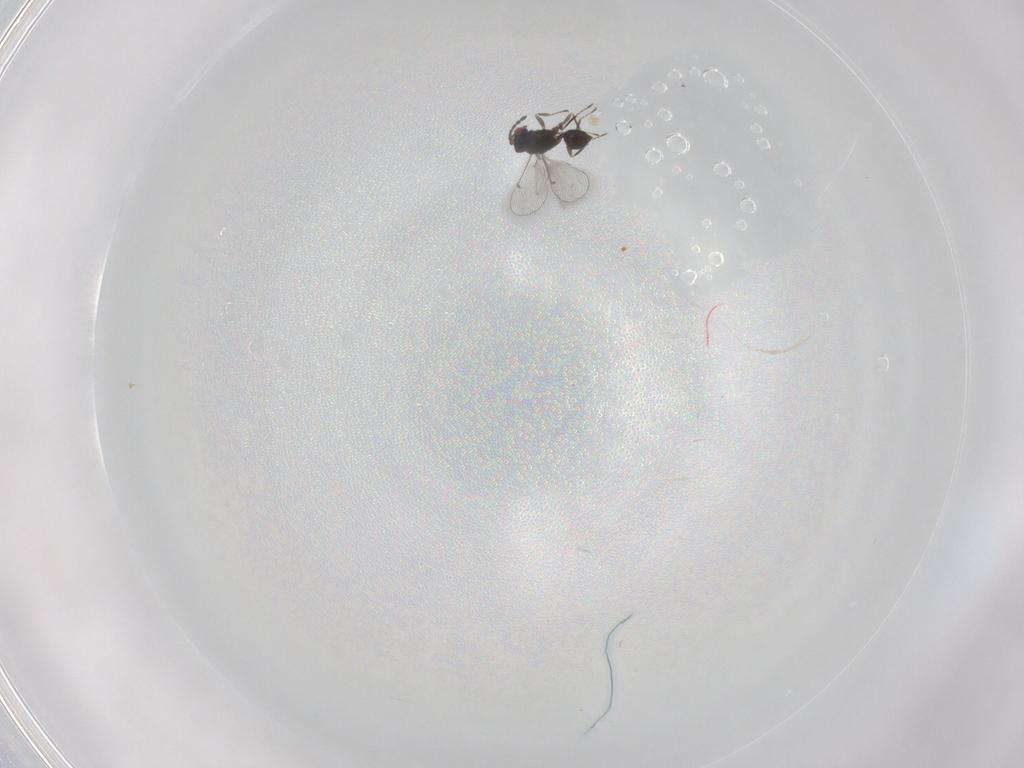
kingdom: Animalia
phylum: Arthropoda
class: Insecta
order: Hymenoptera
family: Eulophidae
